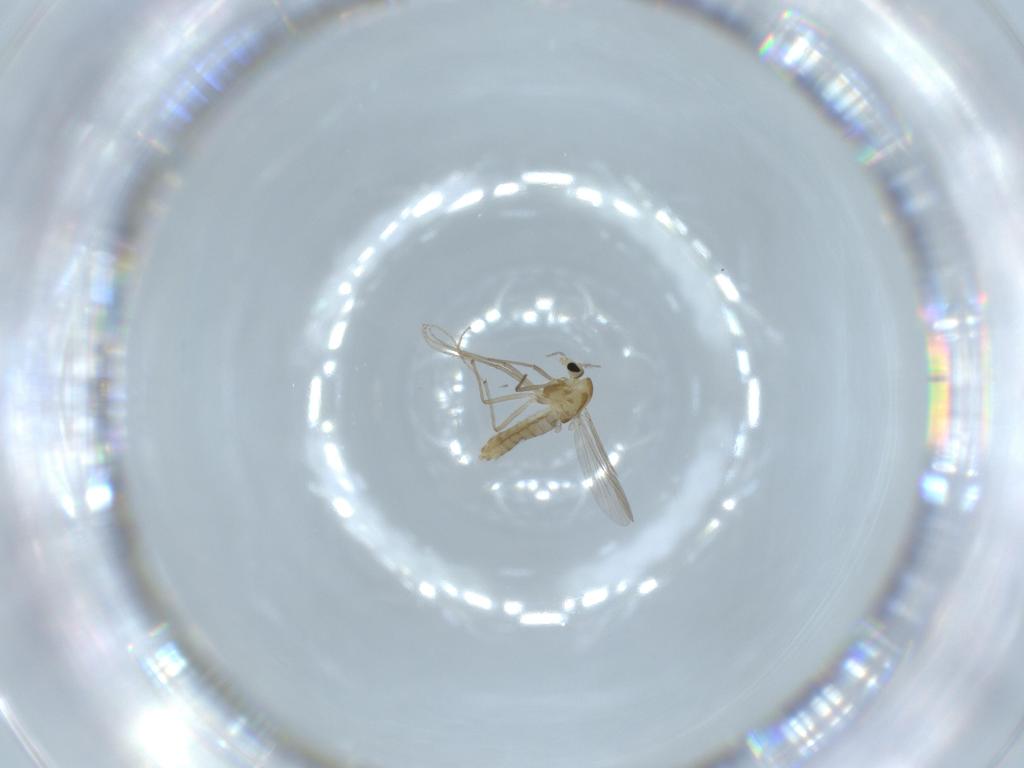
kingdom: Animalia
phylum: Arthropoda
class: Insecta
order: Diptera
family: Chironomidae
